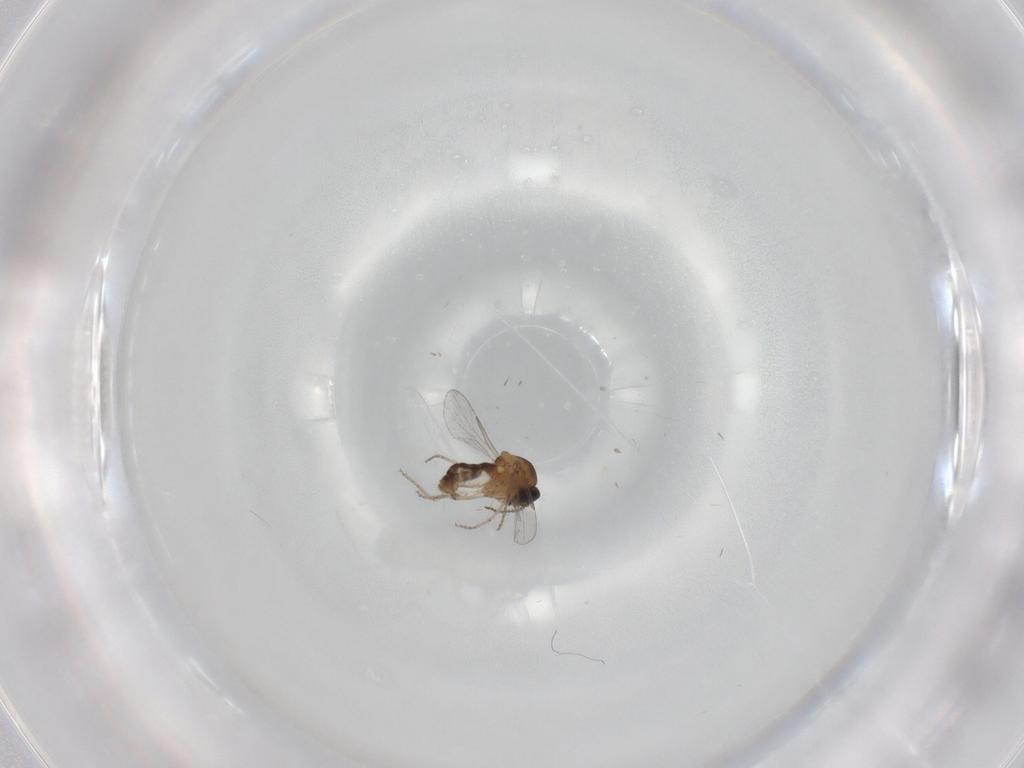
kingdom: Animalia
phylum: Arthropoda
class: Insecta
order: Diptera
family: Ceratopogonidae
